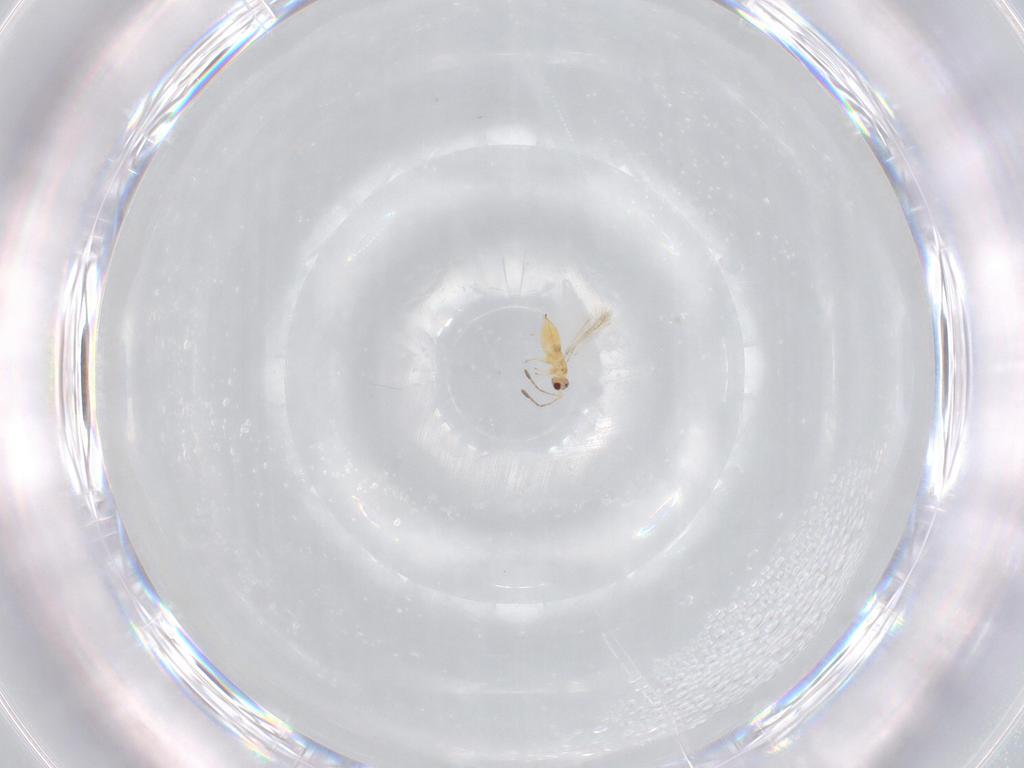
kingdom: Animalia
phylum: Arthropoda
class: Insecta
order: Hymenoptera
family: Mymaridae
